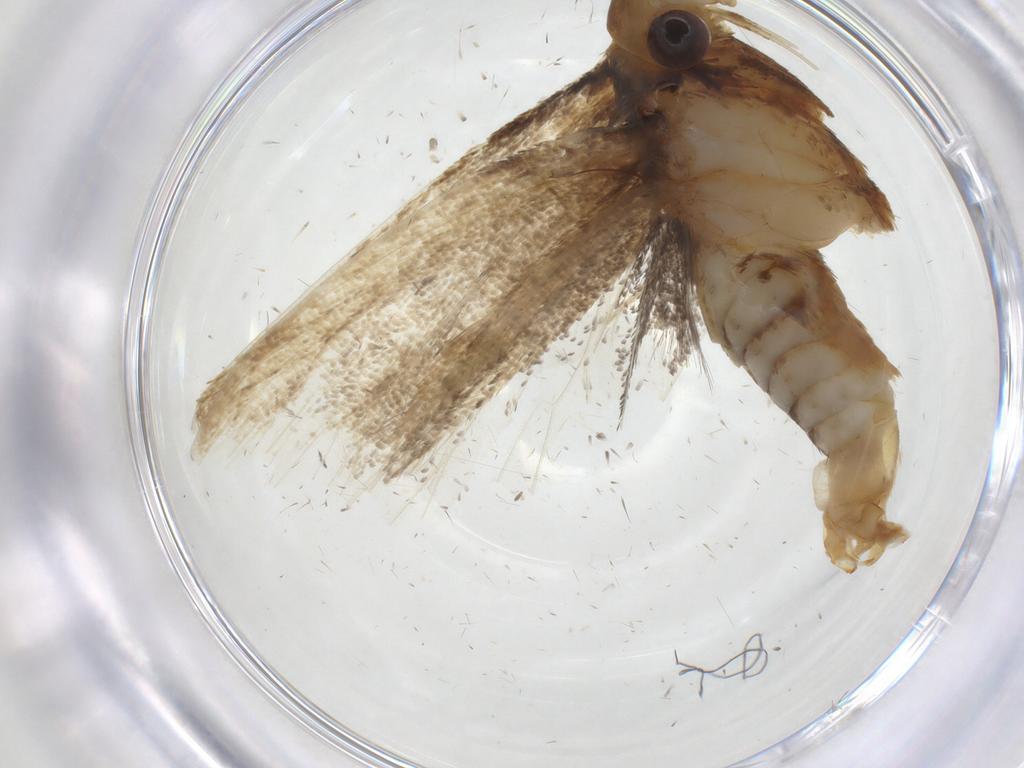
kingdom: Animalia
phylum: Arthropoda
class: Insecta
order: Lepidoptera
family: Lecithoceridae
